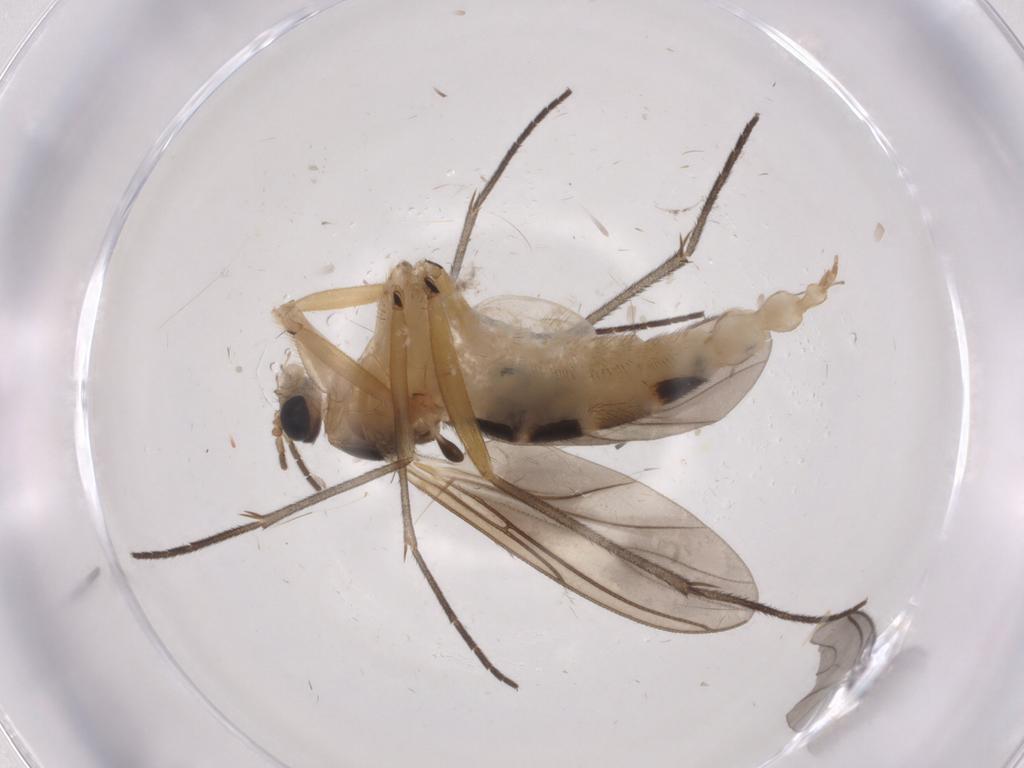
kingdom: Animalia
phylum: Arthropoda
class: Insecta
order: Diptera
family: Sciaridae
